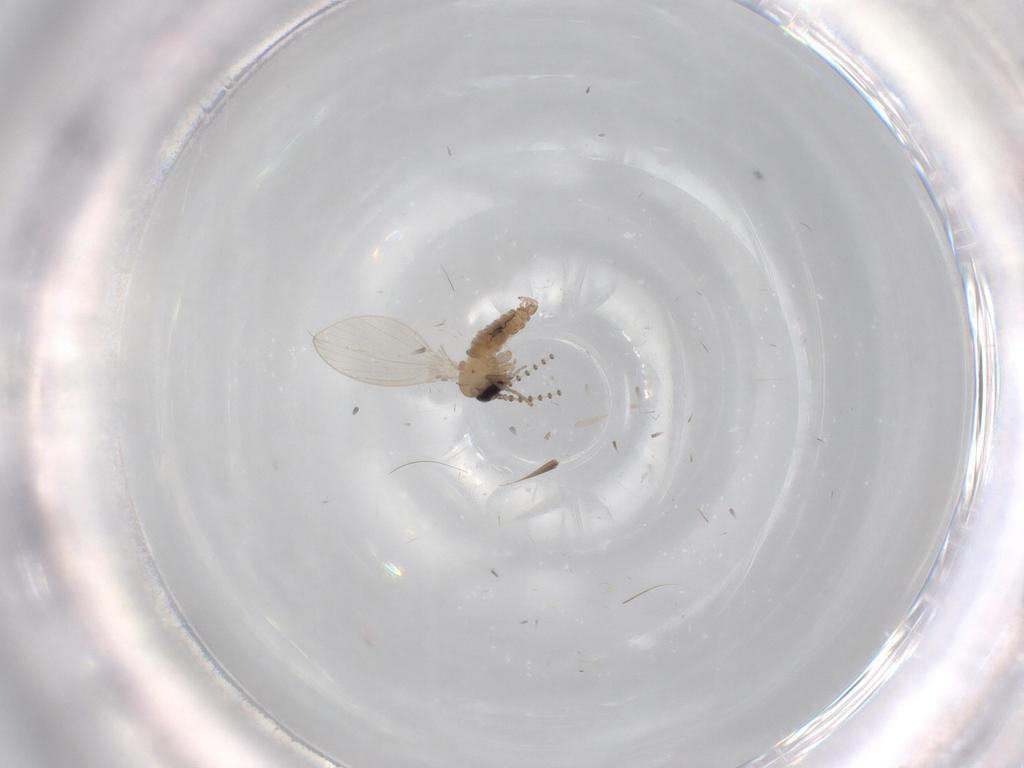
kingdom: Animalia
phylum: Arthropoda
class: Insecta
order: Diptera
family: Psychodidae
